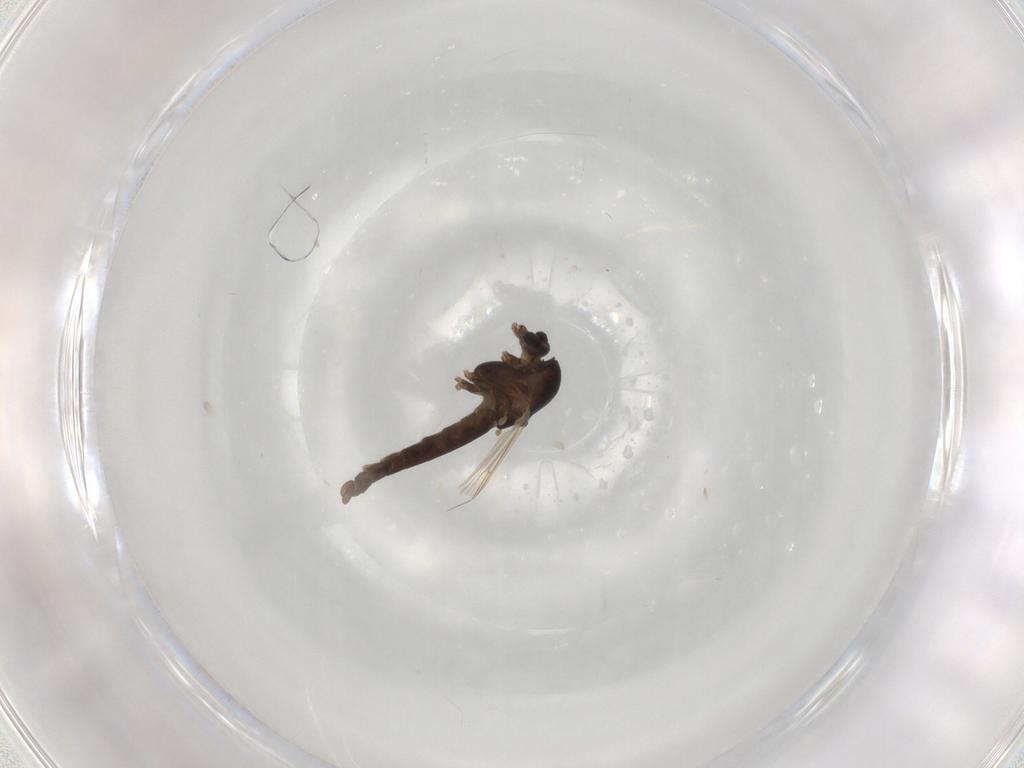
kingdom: Animalia
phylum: Arthropoda
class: Insecta
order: Diptera
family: Chironomidae
